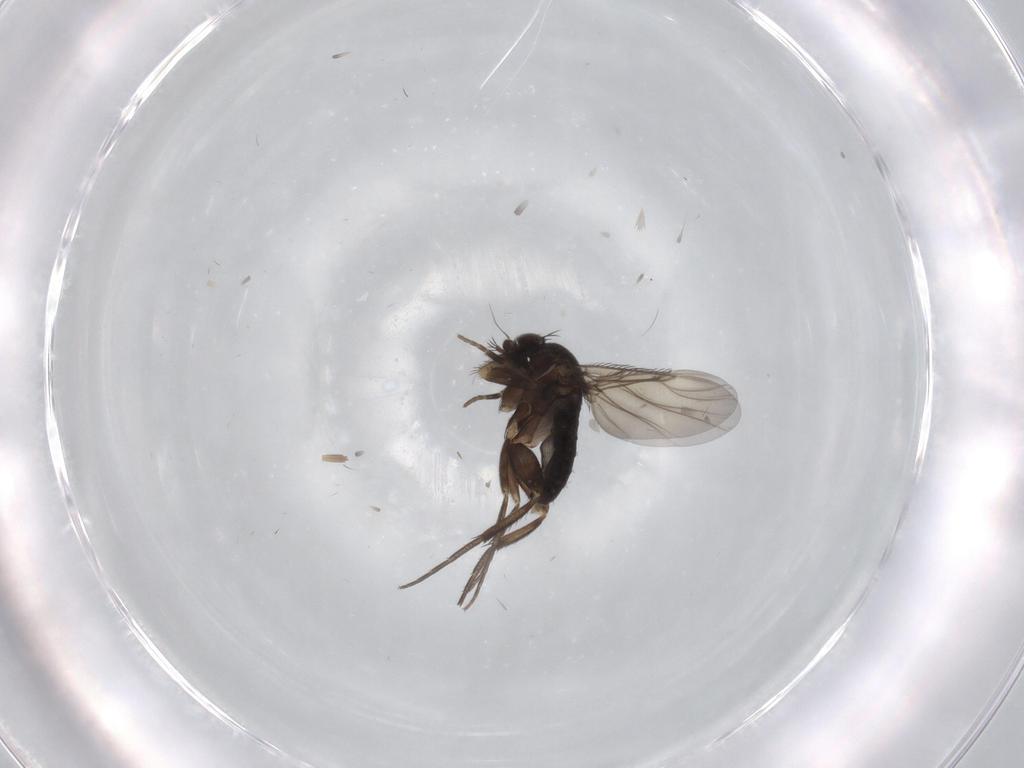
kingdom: Animalia
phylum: Arthropoda
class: Insecta
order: Diptera
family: Phoridae
